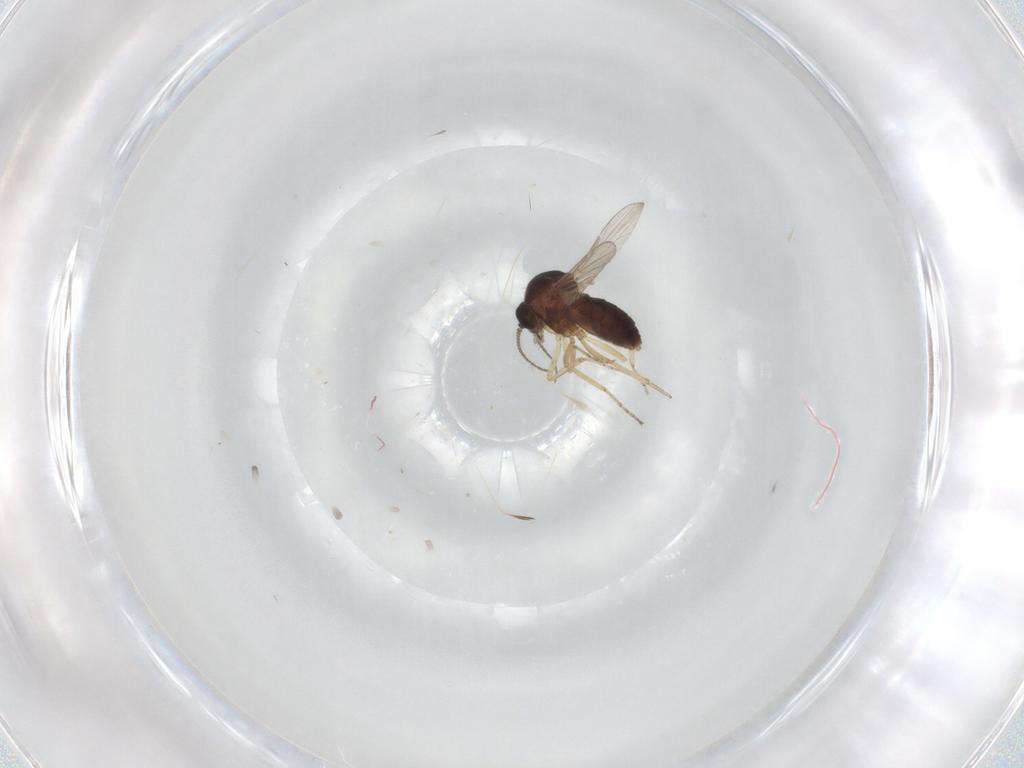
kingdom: Animalia
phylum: Arthropoda
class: Insecta
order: Diptera
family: Ceratopogonidae
